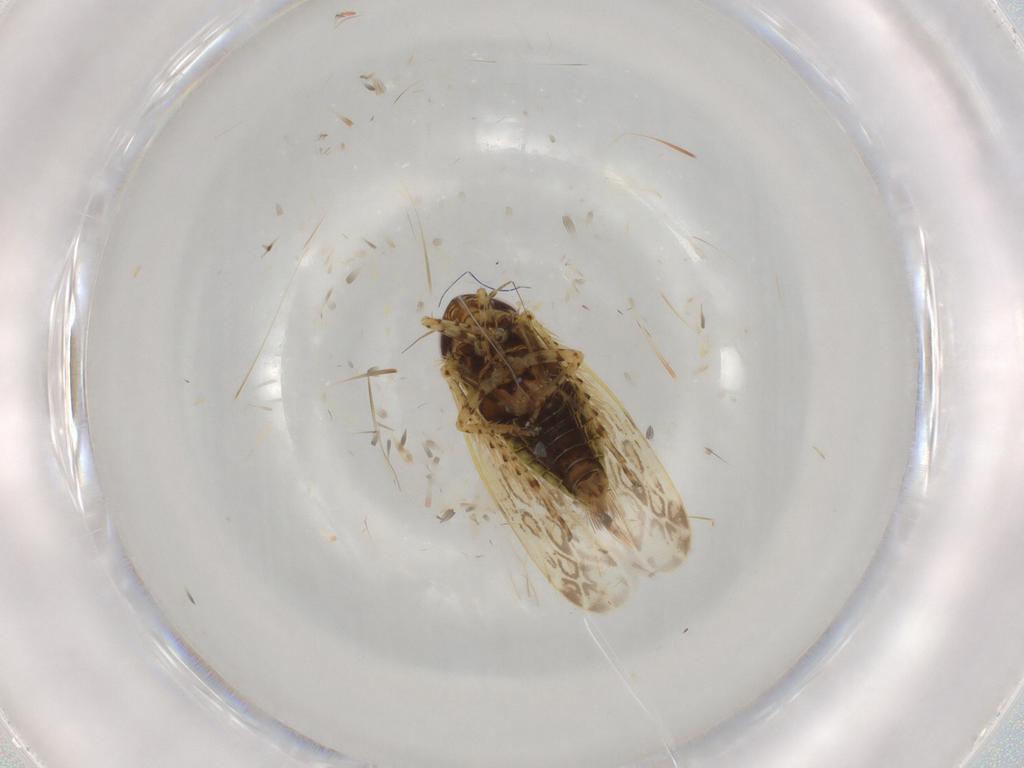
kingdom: Animalia
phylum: Arthropoda
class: Insecta
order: Hemiptera
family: Cicadellidae
